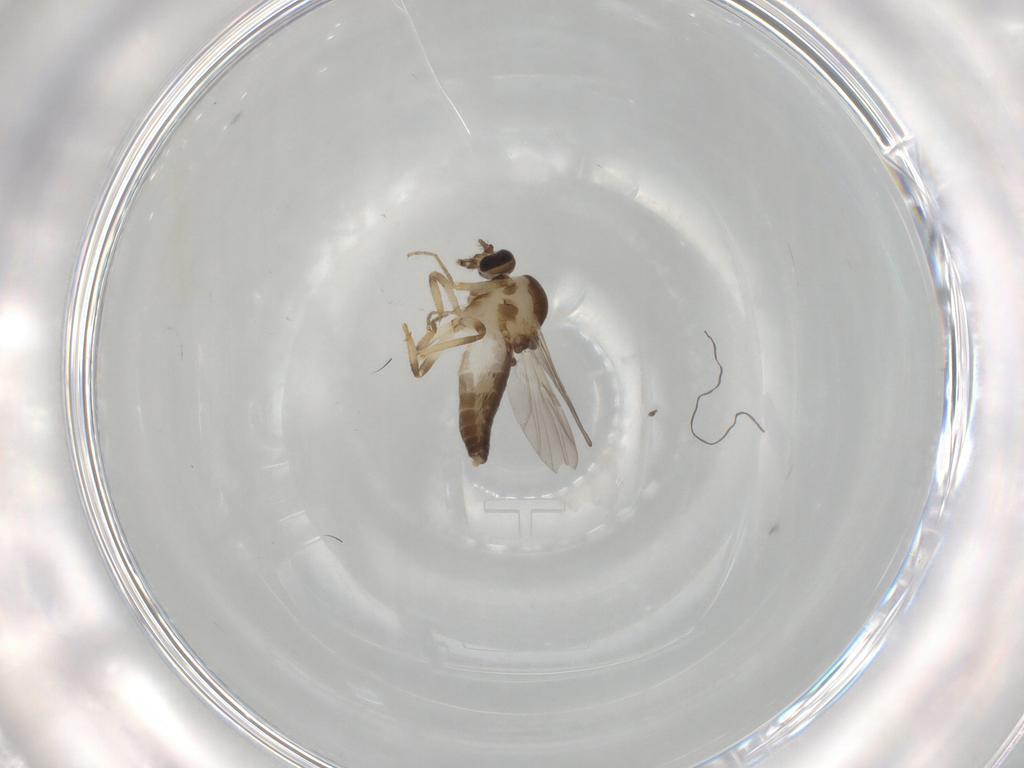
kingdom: Animalia
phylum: Arthropoda
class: Insecta
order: Diptera
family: Ceratopogonidae
